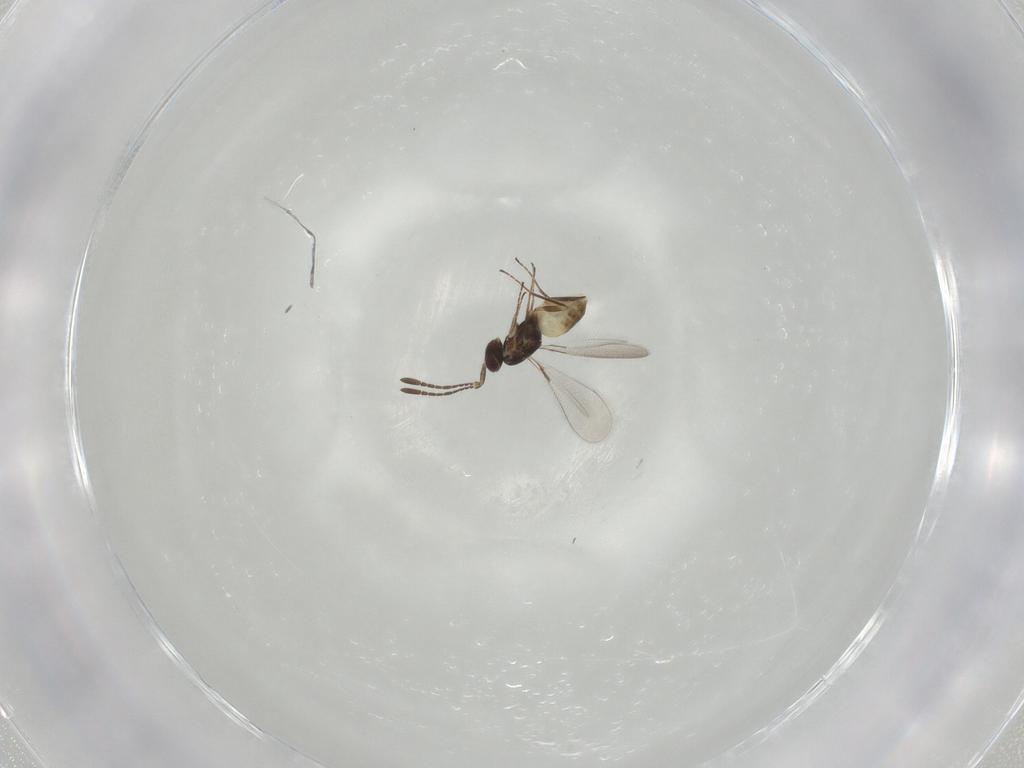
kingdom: Animalia
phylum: Arthropoda
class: Insecta
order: Hymenoptera
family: Mymaridae
